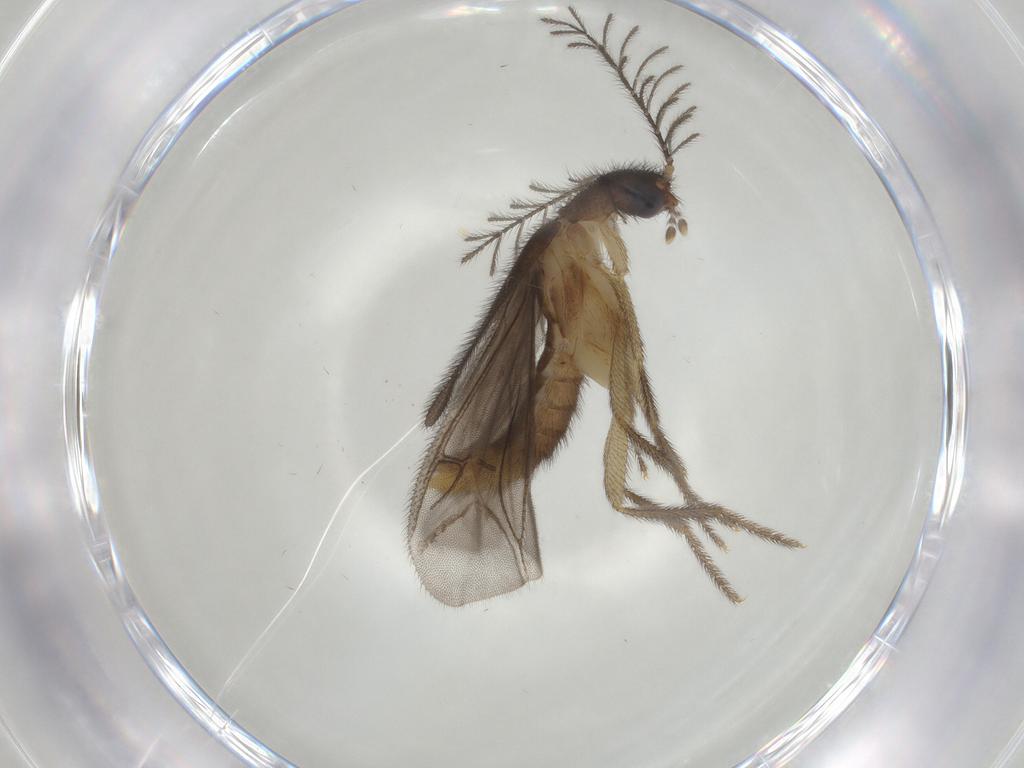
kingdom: Animalia
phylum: Arthropoda
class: Insecta
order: Coleoptera
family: Phengodidae
